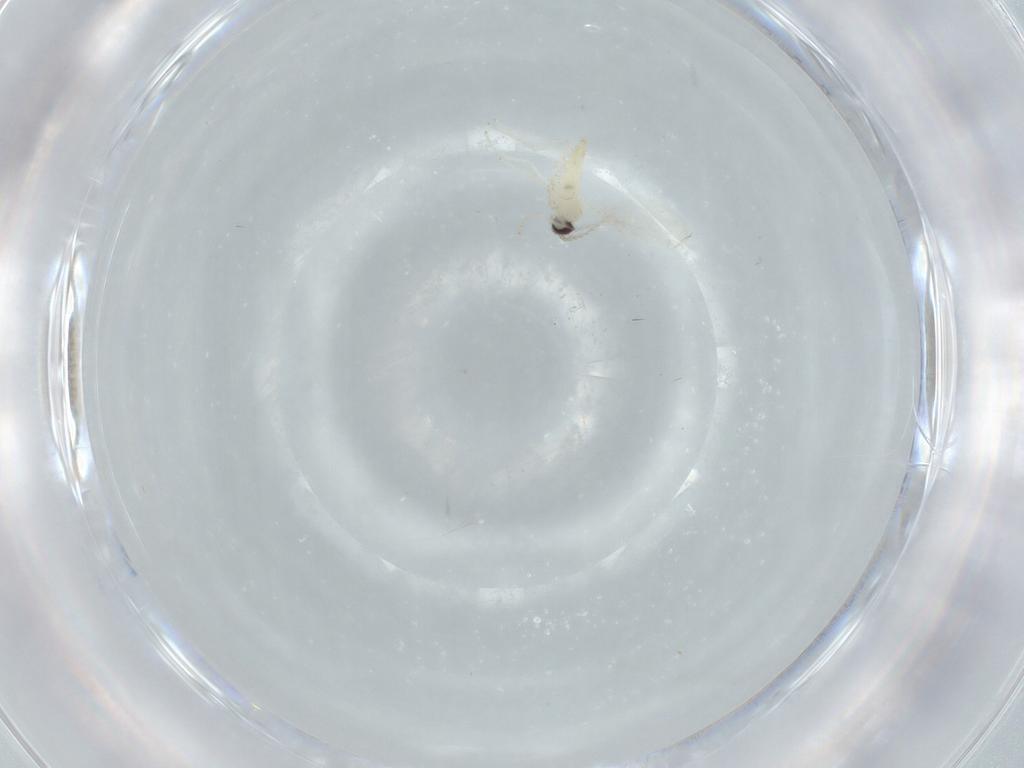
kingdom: Animalia
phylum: Arthropoda
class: Insecta
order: Diptera
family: Cecidomyiidae
